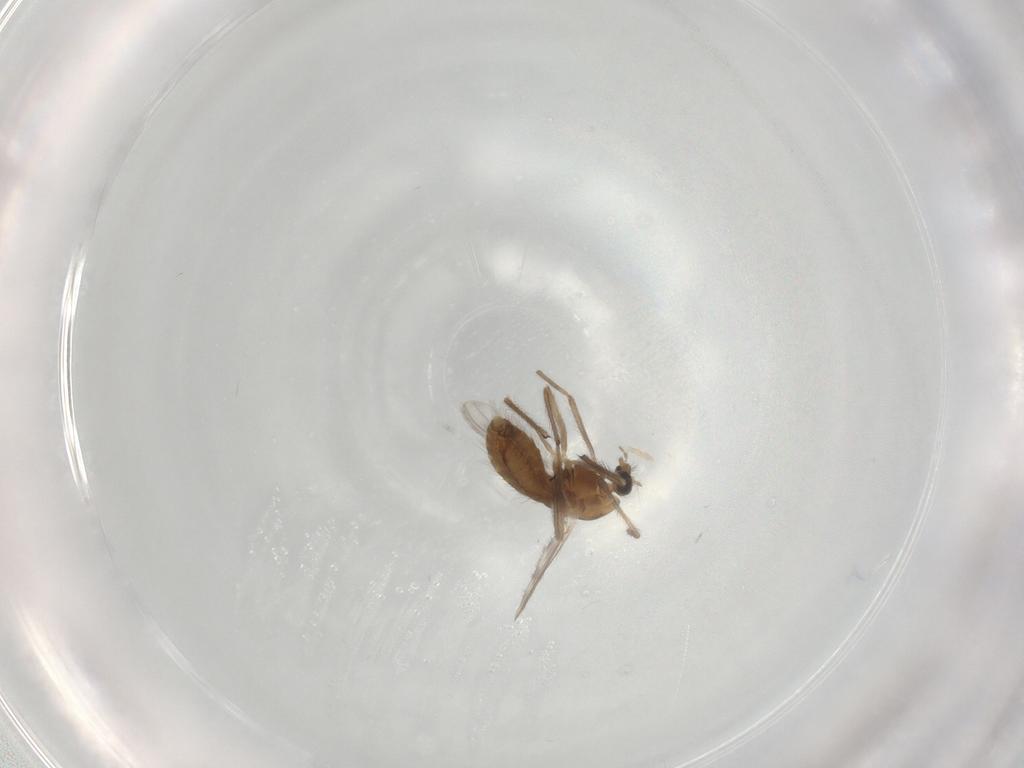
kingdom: Animalia
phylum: Arthropoda
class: Insecta
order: Diptera
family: Chironomidae
